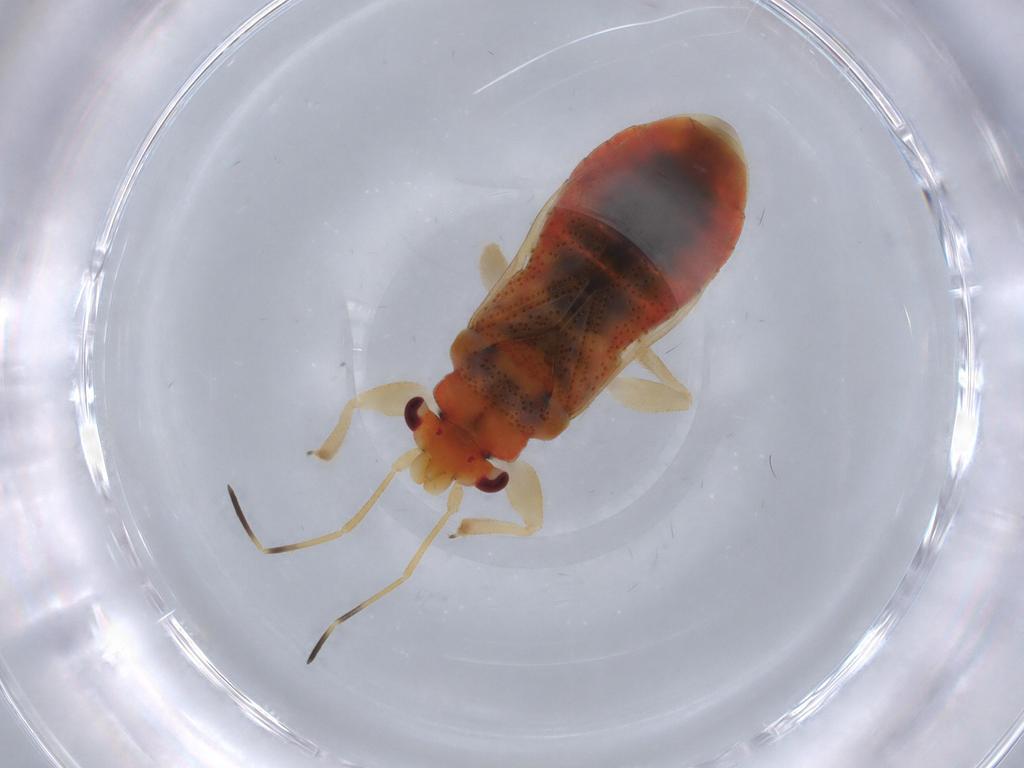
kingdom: Animalia
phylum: Arthropoda
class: Insecta
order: Hemiptera
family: Thaumastocoridae
